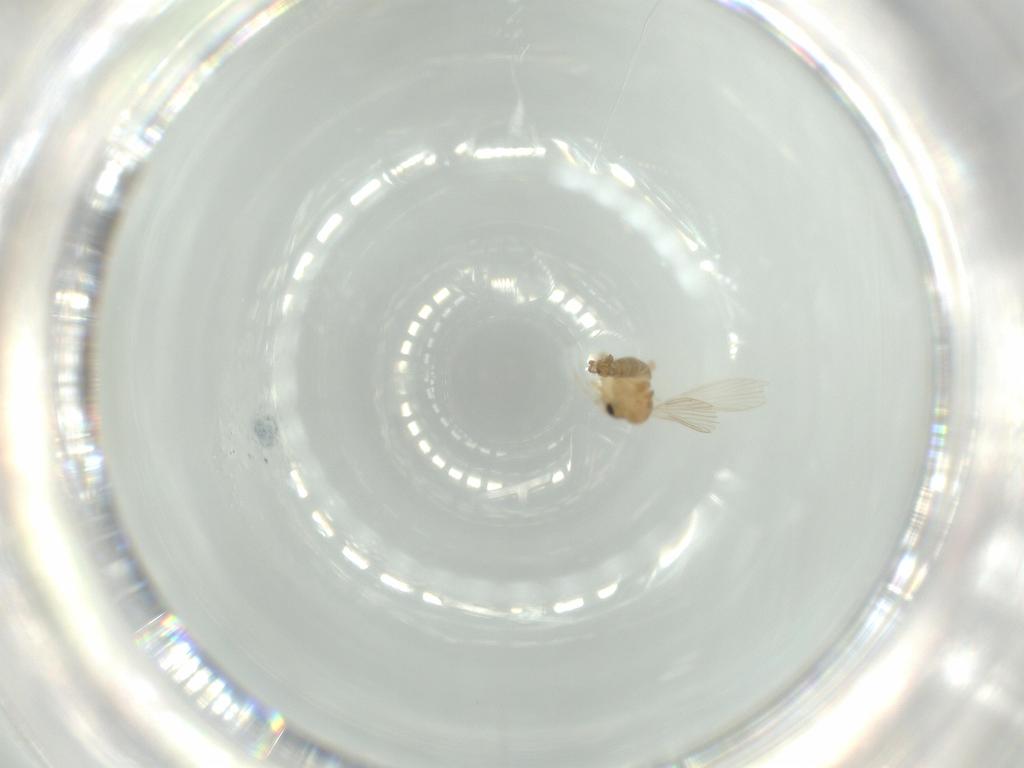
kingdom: Animalia
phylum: Arthropoda
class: Insecta
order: Diptera
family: Psychodidae
